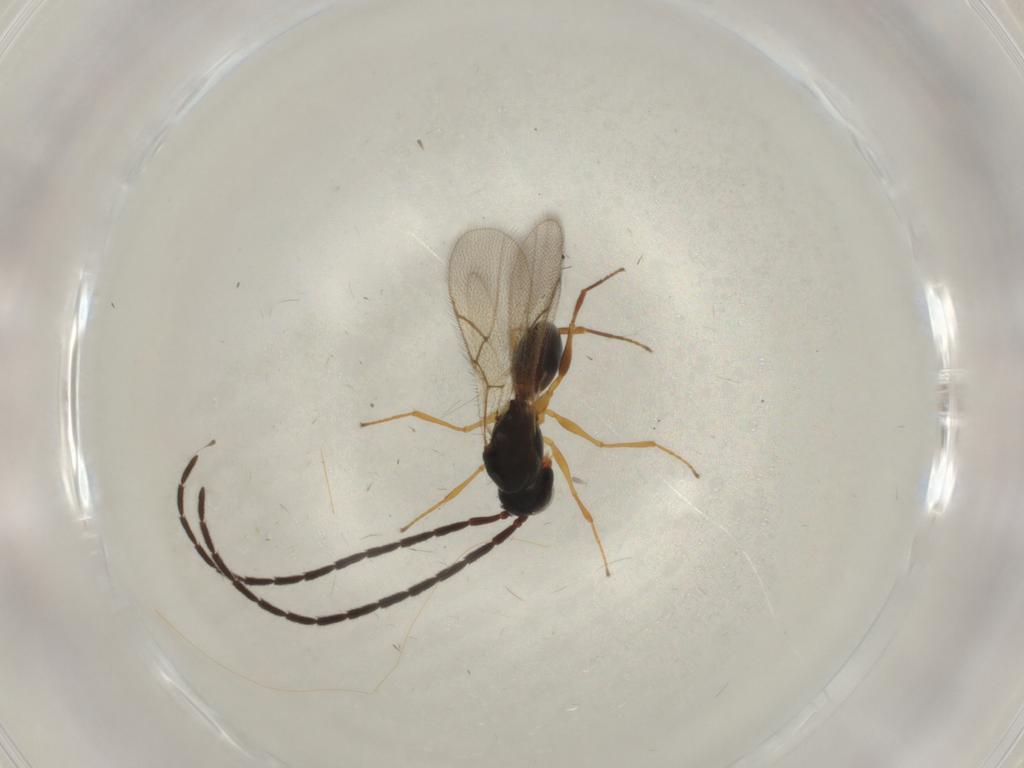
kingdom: Animalia
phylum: Arthropoda
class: Insecta
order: Hymenoptera
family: Figitidae
